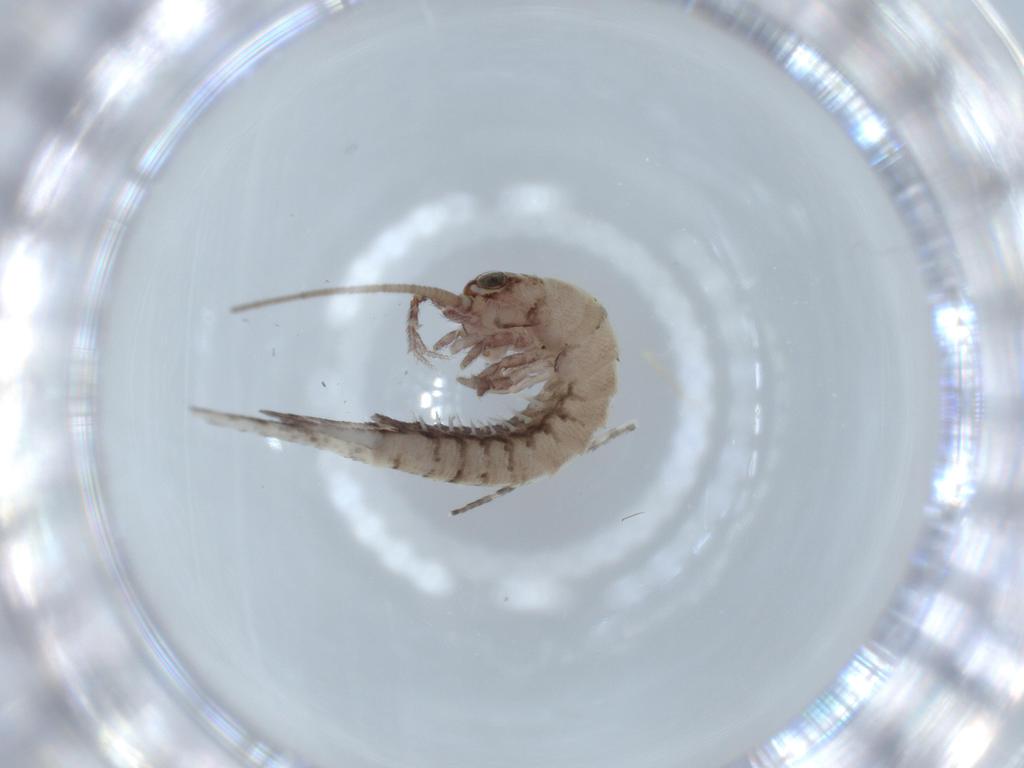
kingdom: Animalia
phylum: Arthropoda
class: Insecta
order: Archaeognatha
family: Machilidae
